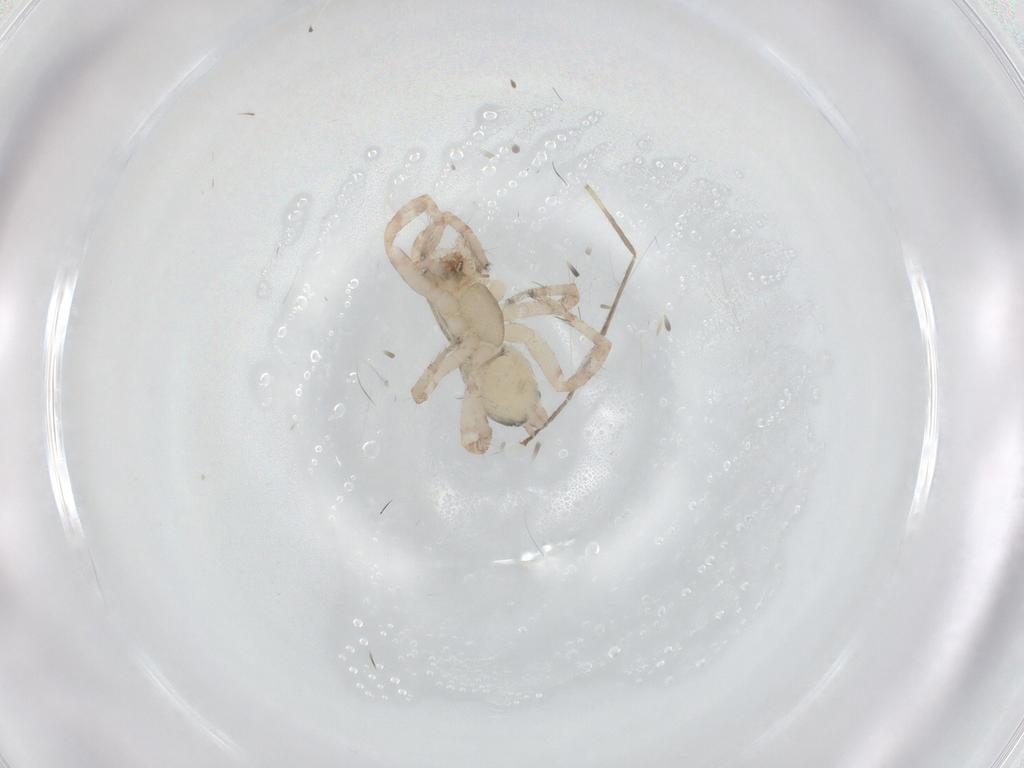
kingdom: Animalia
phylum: Arthropoda
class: Arachnida
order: Araneae
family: Anyphaenidae
